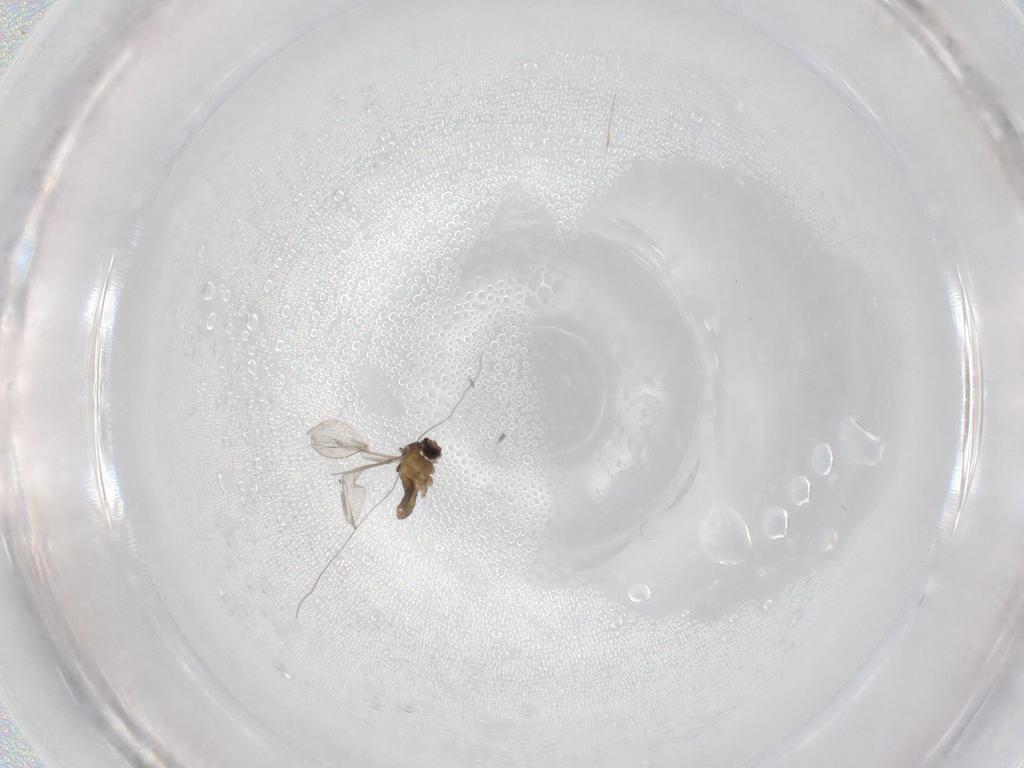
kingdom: Animalia
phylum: Arthropoda
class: Insecta
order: Diptera
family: Cecidomyiidae
